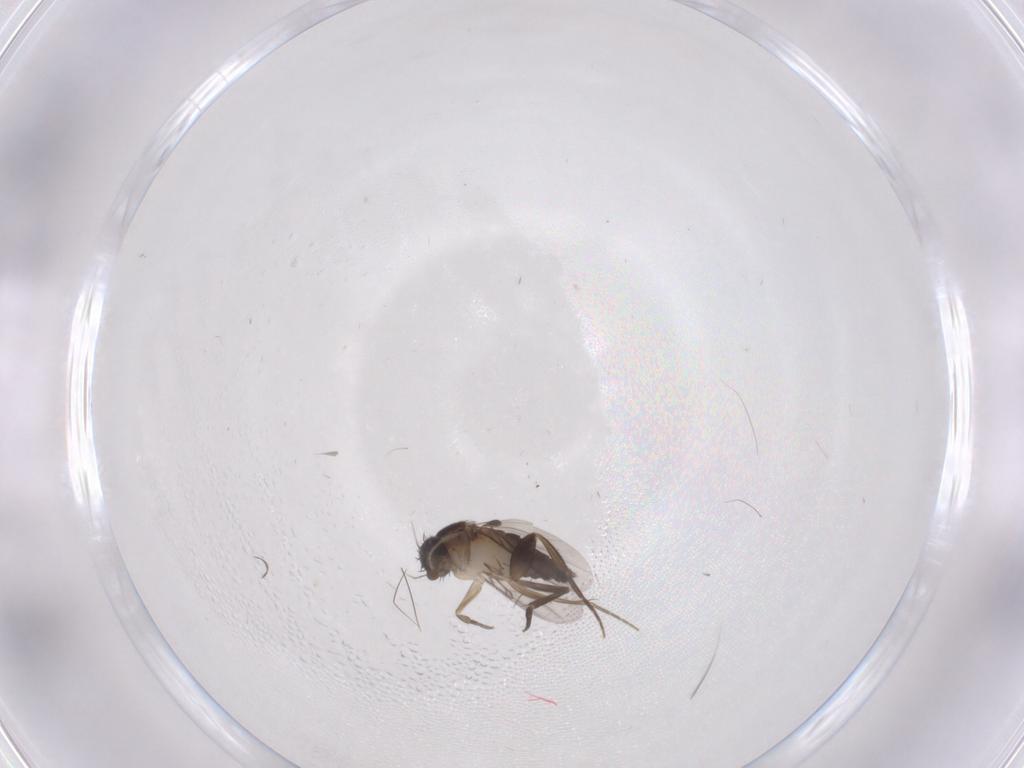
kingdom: Animalia
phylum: Arthropoda
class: Insecta
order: Diptera
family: Phoridae
